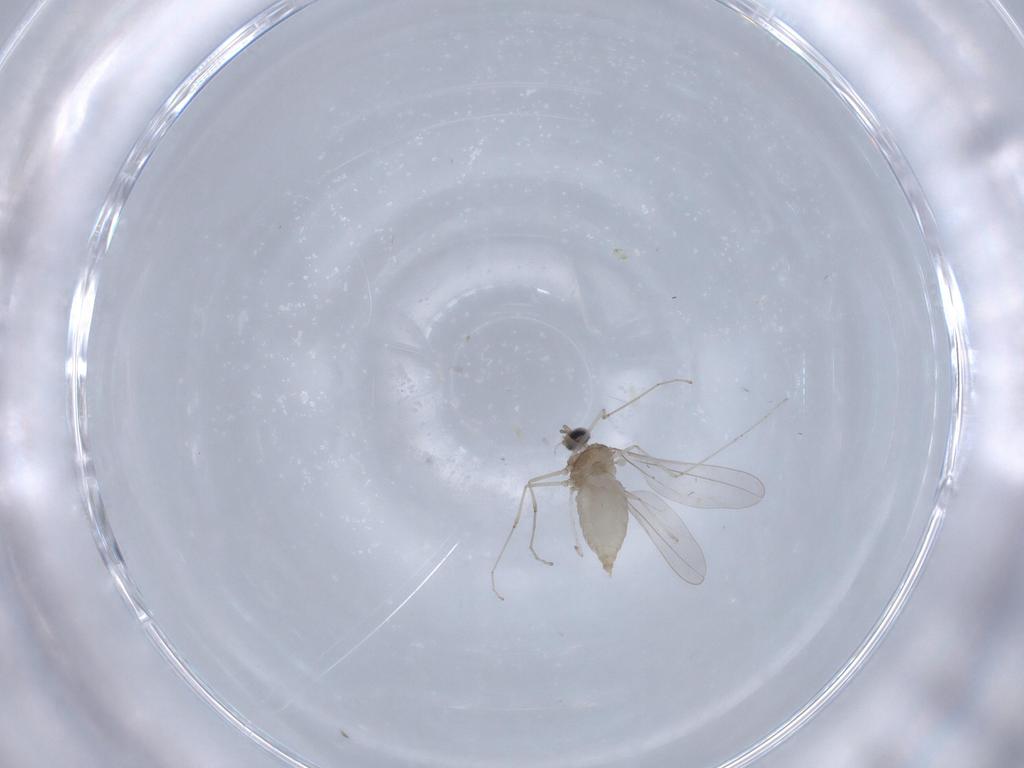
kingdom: Animalia
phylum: Arthropoda
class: Insecta
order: Diptera
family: Cecidomyiidae
